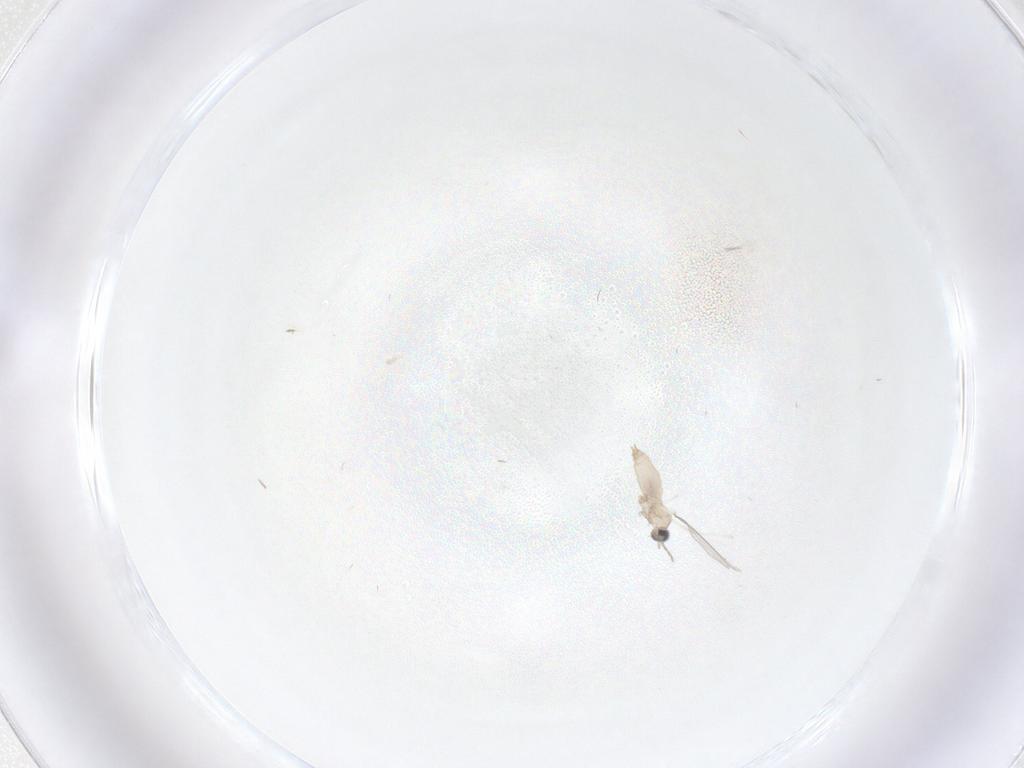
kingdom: Animalia
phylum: Arthropoda
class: Insecta
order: Diptera
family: Cecidomyiidae
